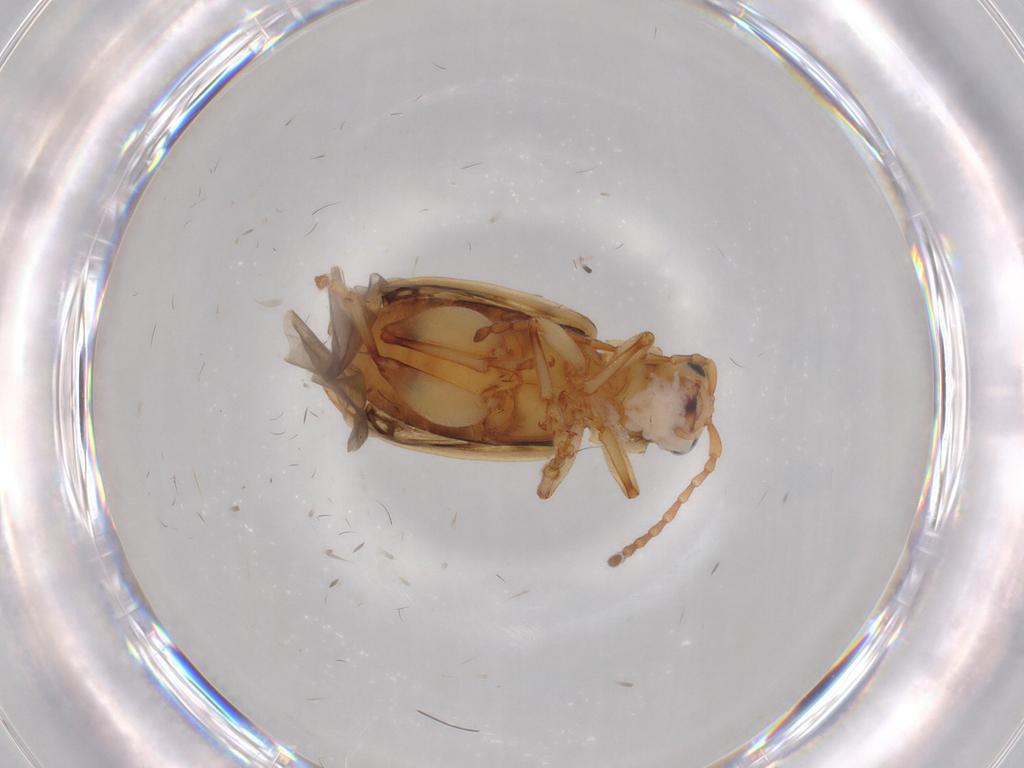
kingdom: Animalia
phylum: Arthropoda
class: Insecta
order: Coleoptera
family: Chrysomelidae
